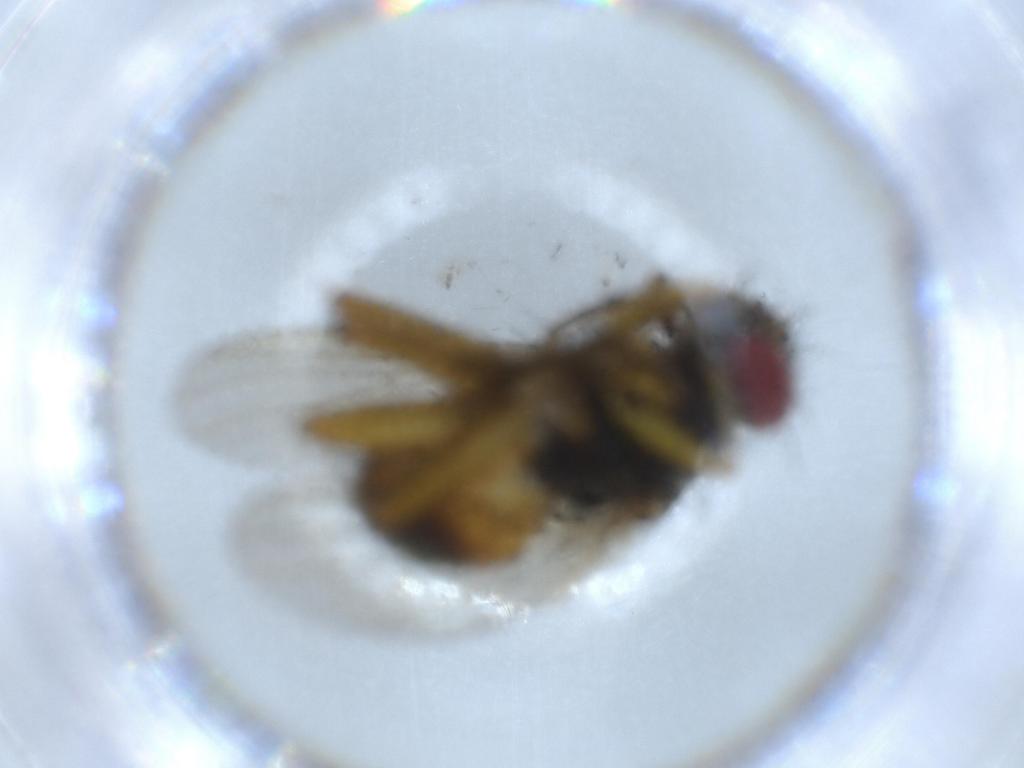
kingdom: Animalia
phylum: Arthropoda
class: Insecta
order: Diptera
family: Muscidae
